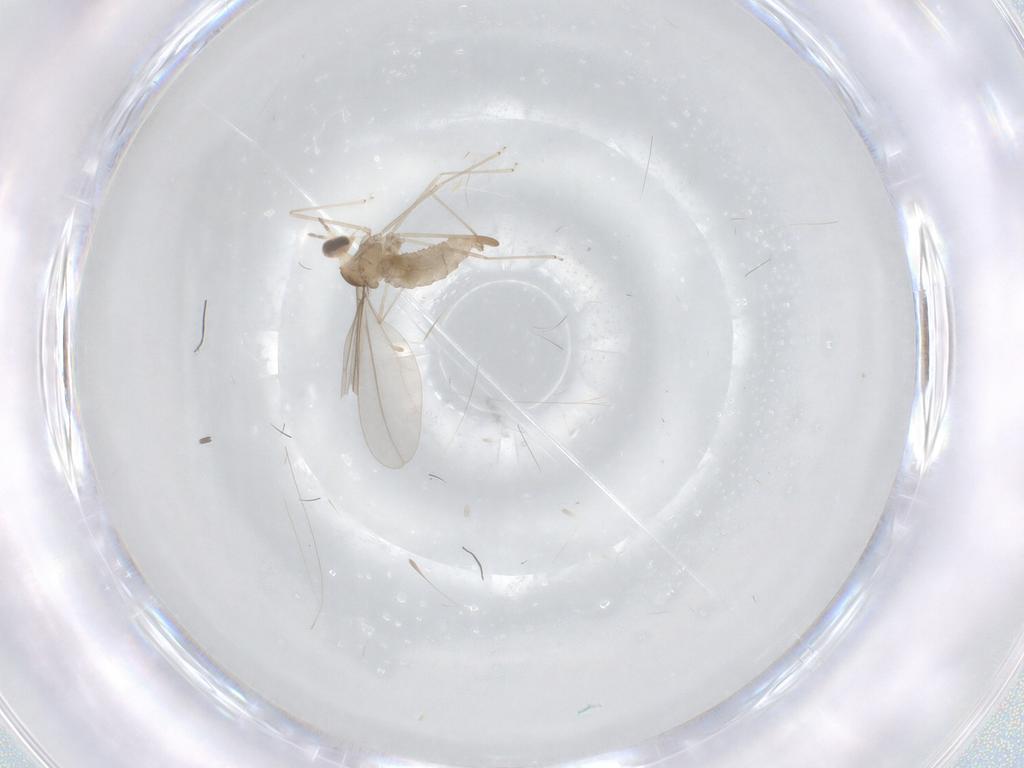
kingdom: Animalia
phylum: Arthropoda
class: Insecta
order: Diptera
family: Cecidomyiidae
